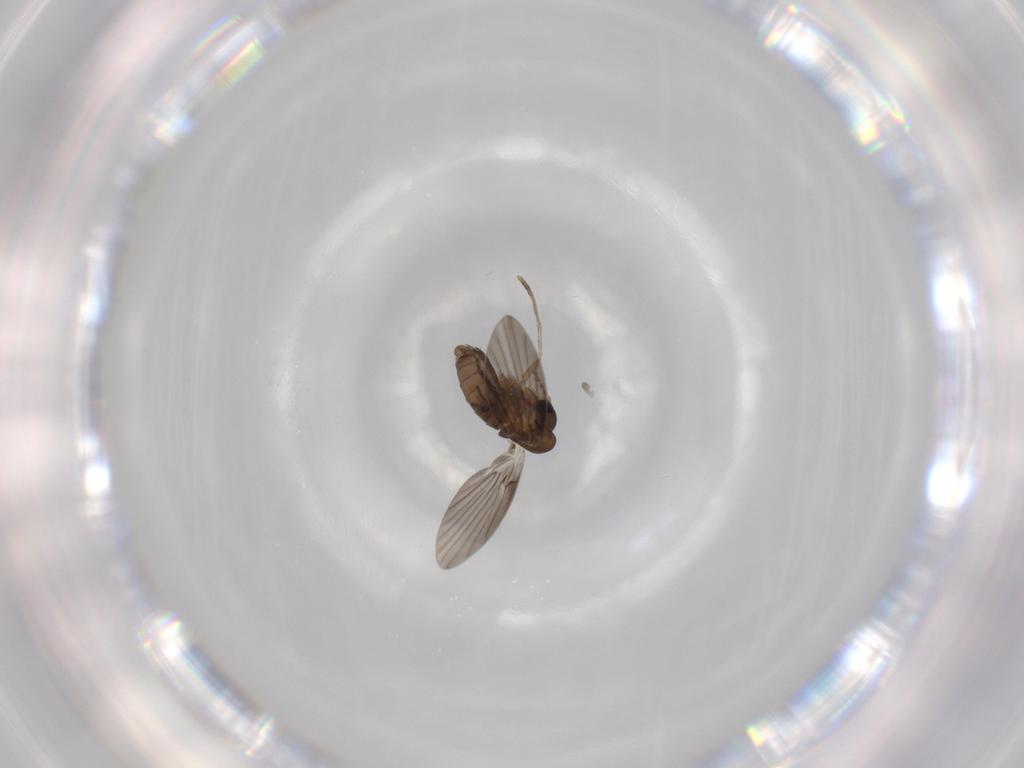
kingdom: Animalia
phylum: Arthropoda
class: Insecta
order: Diptera
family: Psychodidae
